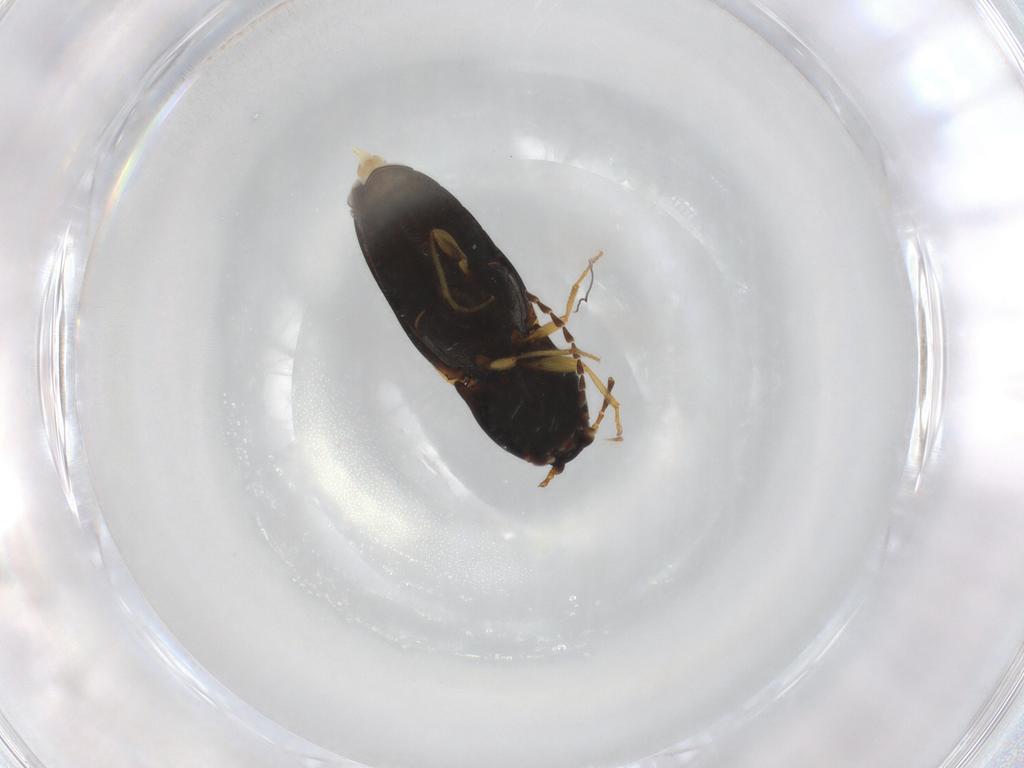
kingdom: Animalia
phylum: Arthropoda
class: Insecta
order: Coleoptera
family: Elateridae
